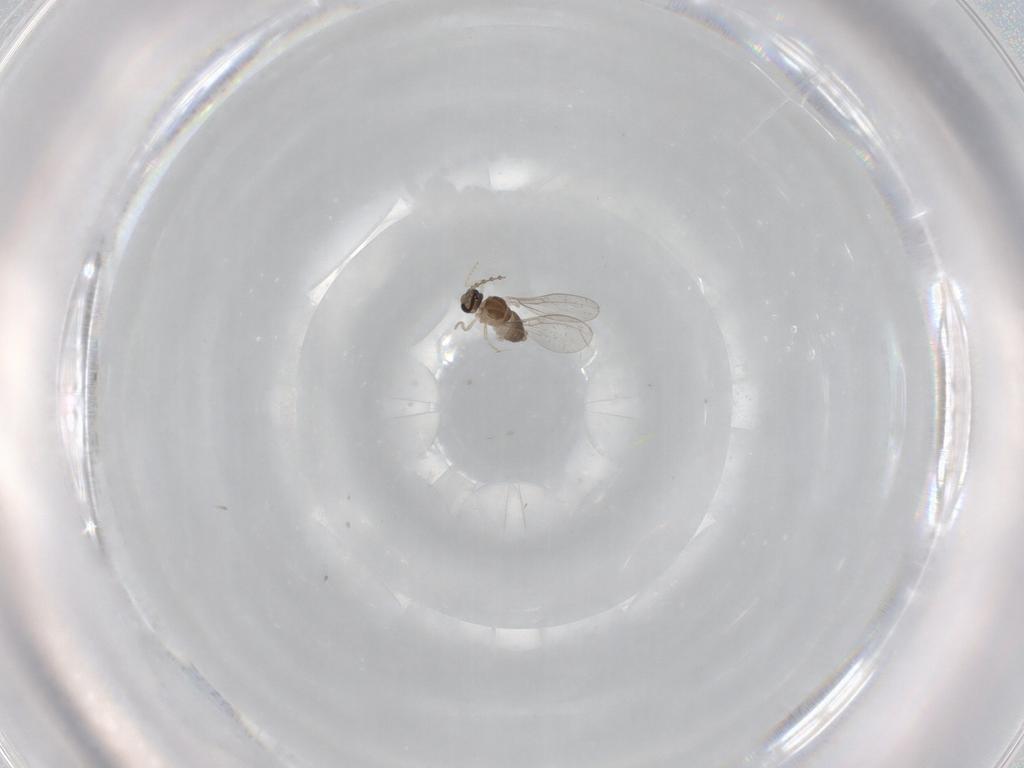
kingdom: Animalia
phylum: Arthropoda
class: Insecta
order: Diptera
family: Cecidomyiidae
